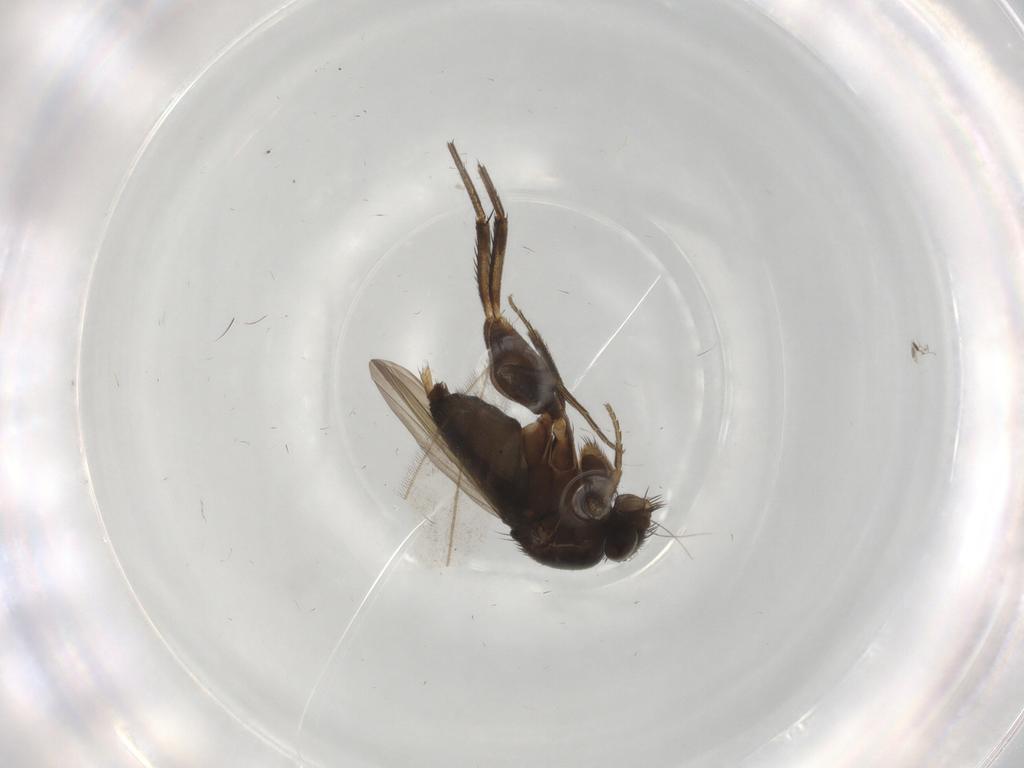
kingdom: Animalia
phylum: Arthropoda
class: Insecta
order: Diptera
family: Phoridae
